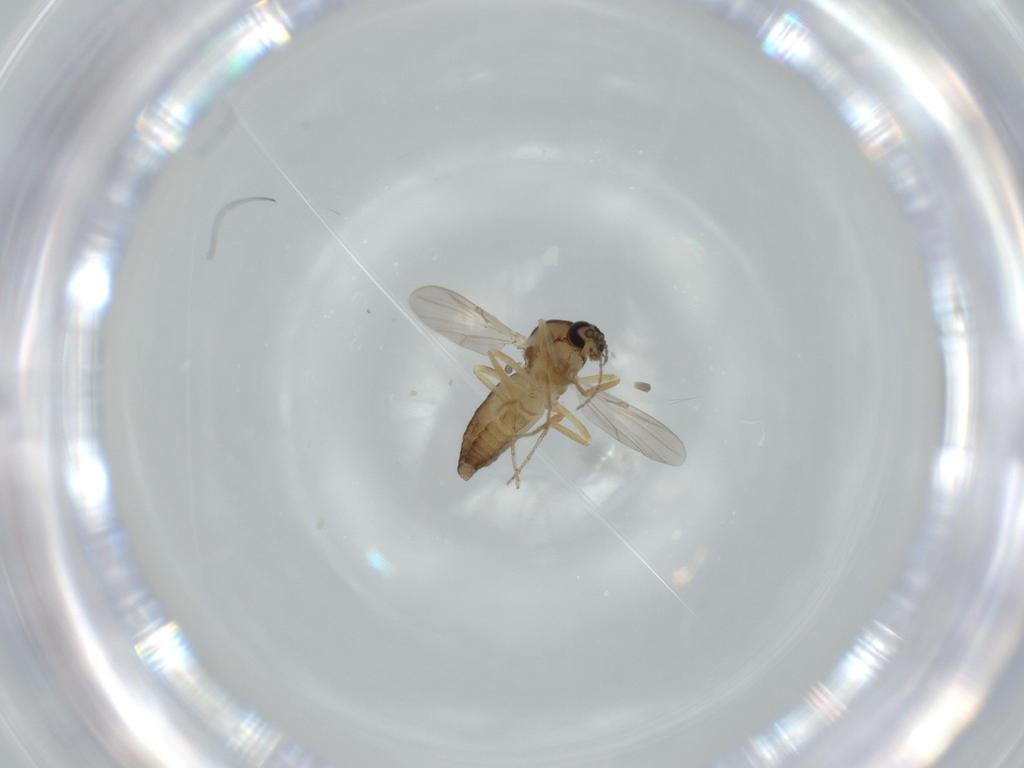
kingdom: Animalia
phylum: Arthropoda
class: Insecta
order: Diptera
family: Ceratopogonidae
